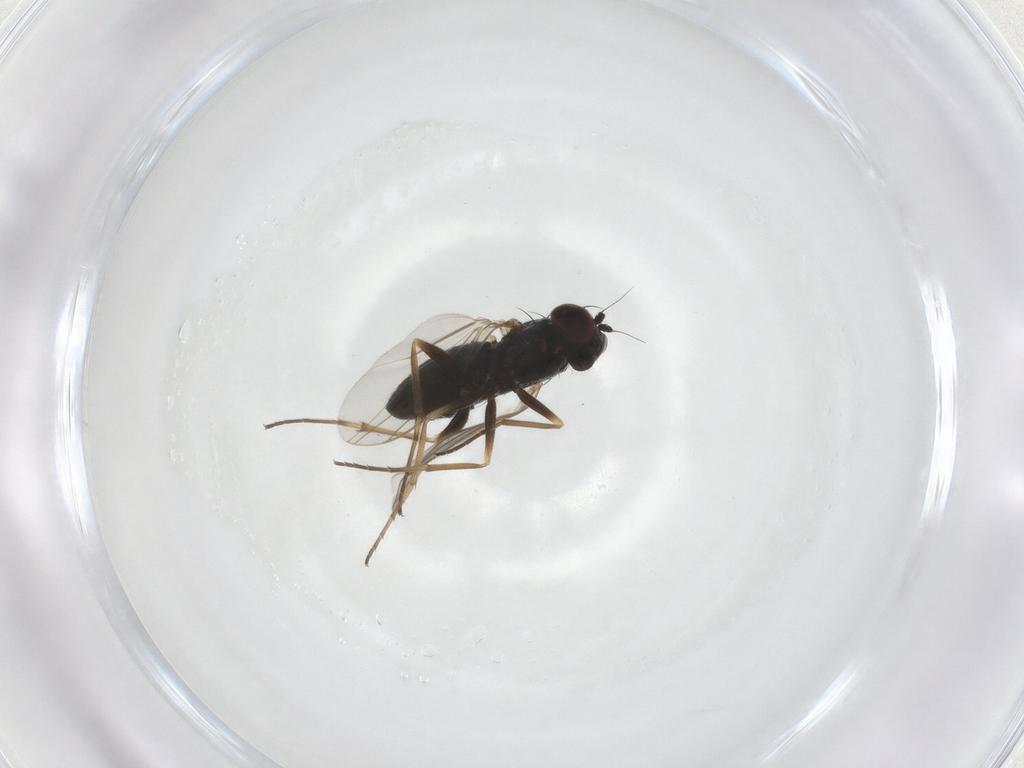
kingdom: Animalia
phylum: Arthropoda
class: Insecta
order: Diptera
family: Dolichopodidae
